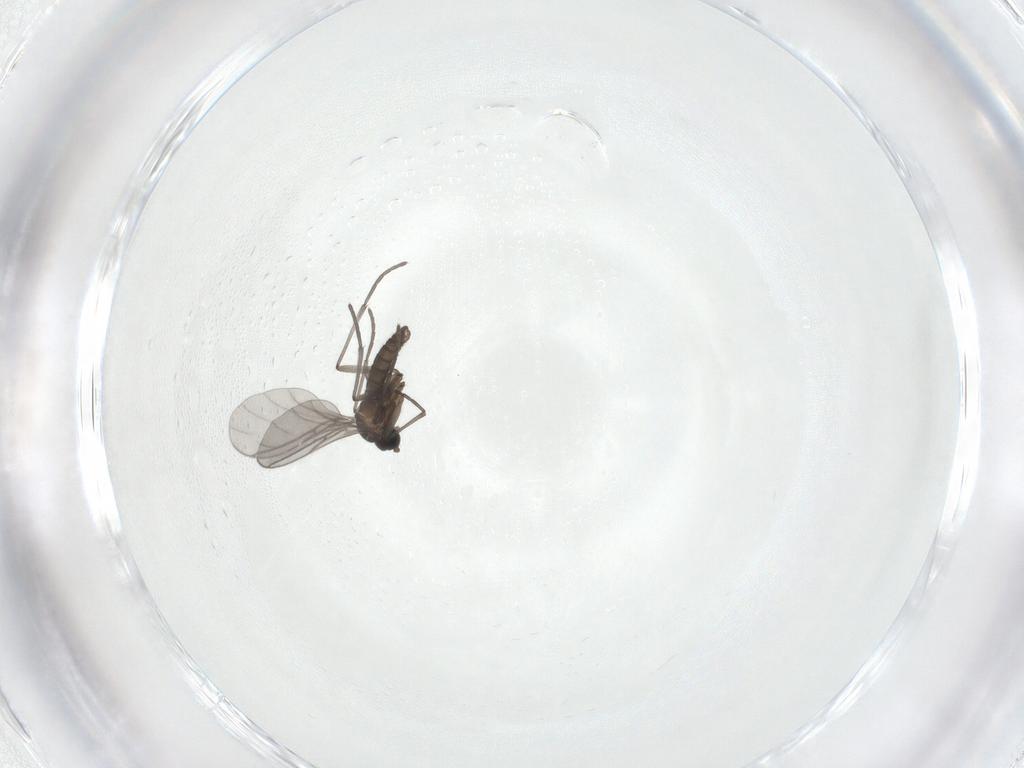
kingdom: Animalia
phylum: Arthropoda
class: Insecta
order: Diptera
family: Sciaridae
